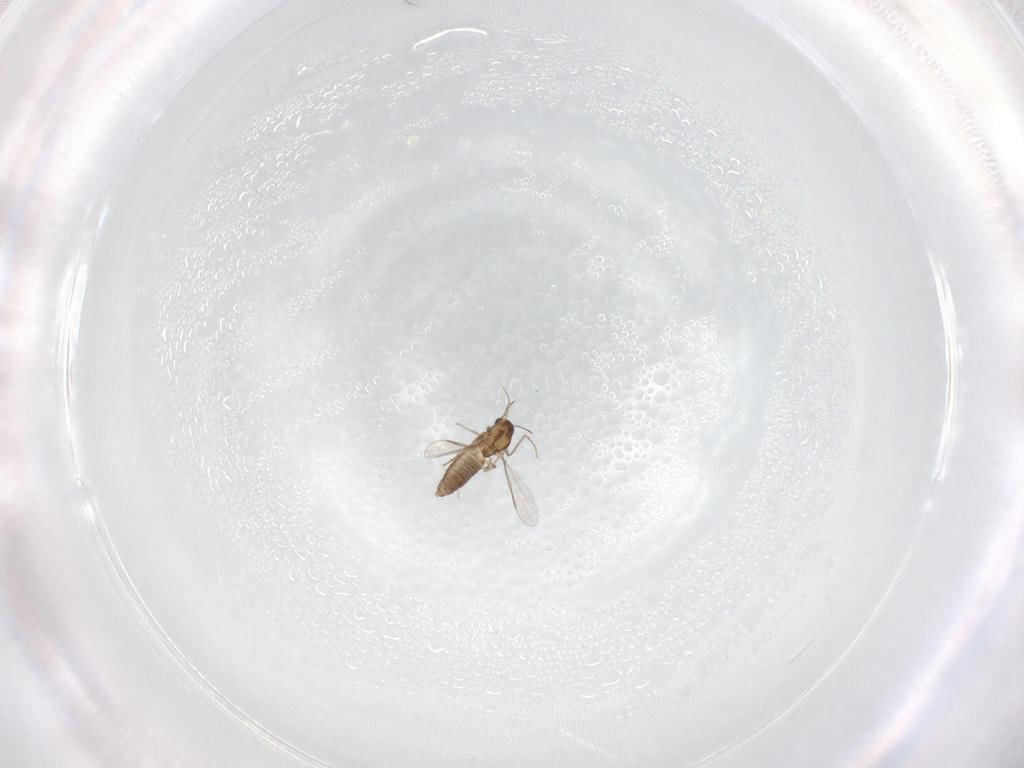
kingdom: Animalia
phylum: Arthropoda
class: Insecta
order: Diptera
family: Chironomidae
